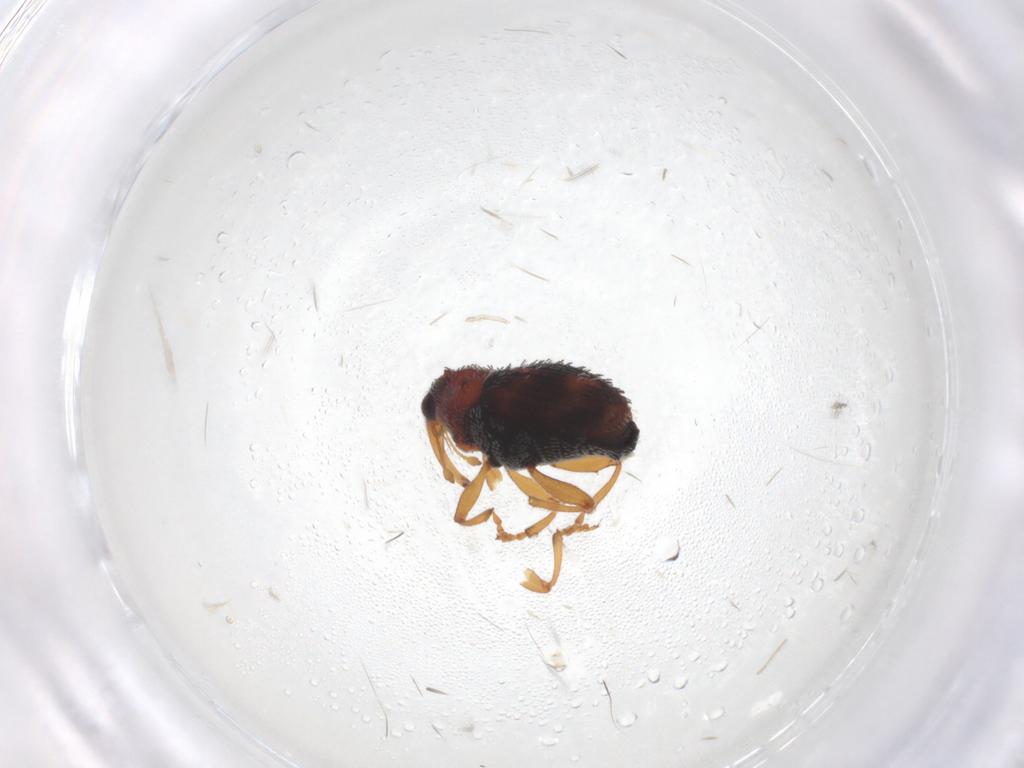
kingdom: Animalia
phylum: Arthropoda
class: Insecta
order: Coleoptera
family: Curculionidae
